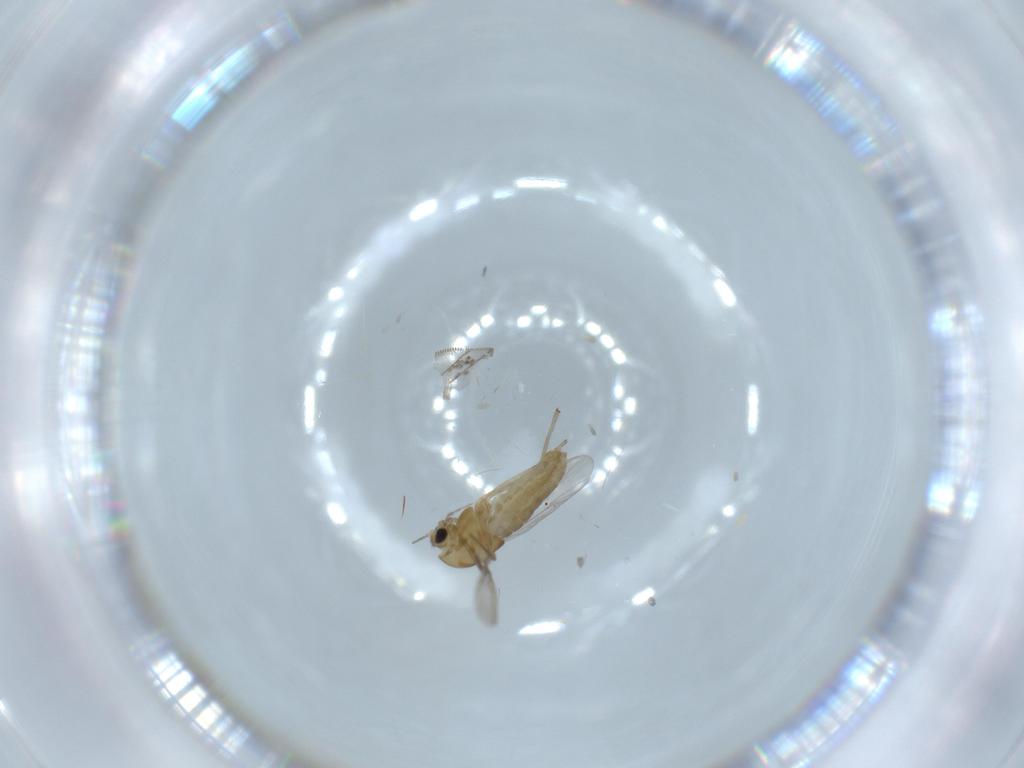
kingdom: Animalia
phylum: Arthropoda
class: Insecta
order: Diptera
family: Chironomidae
